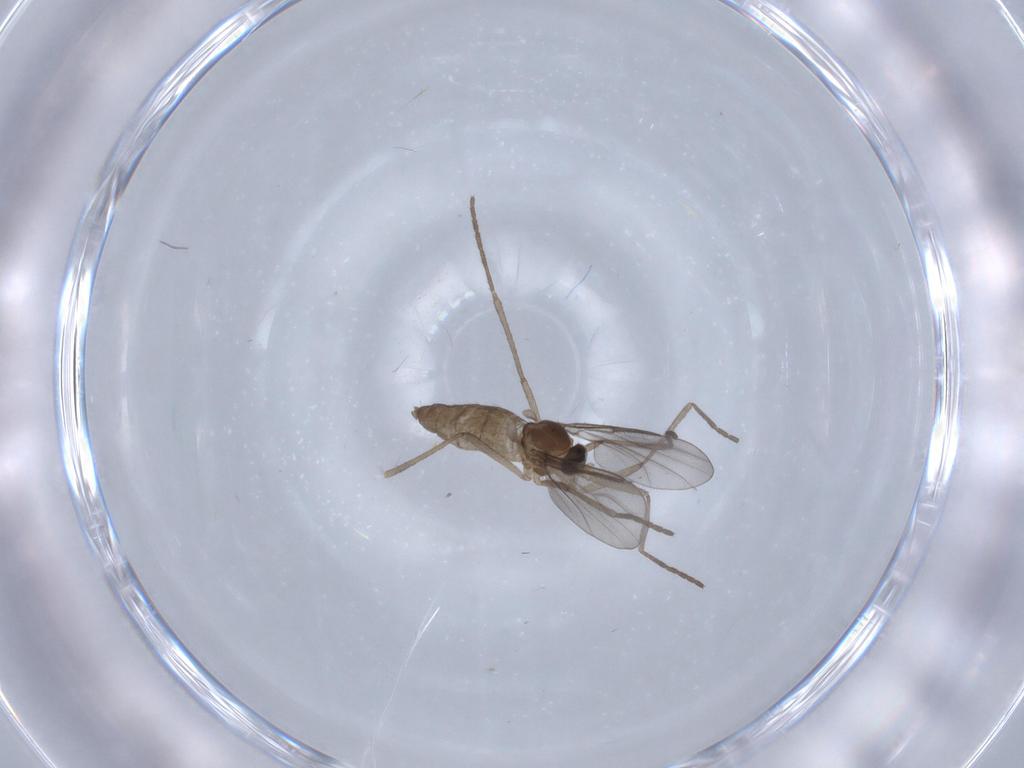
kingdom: Animalia
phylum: Arthropoda
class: Insecta
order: Diptera
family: Cecidomyiidae
